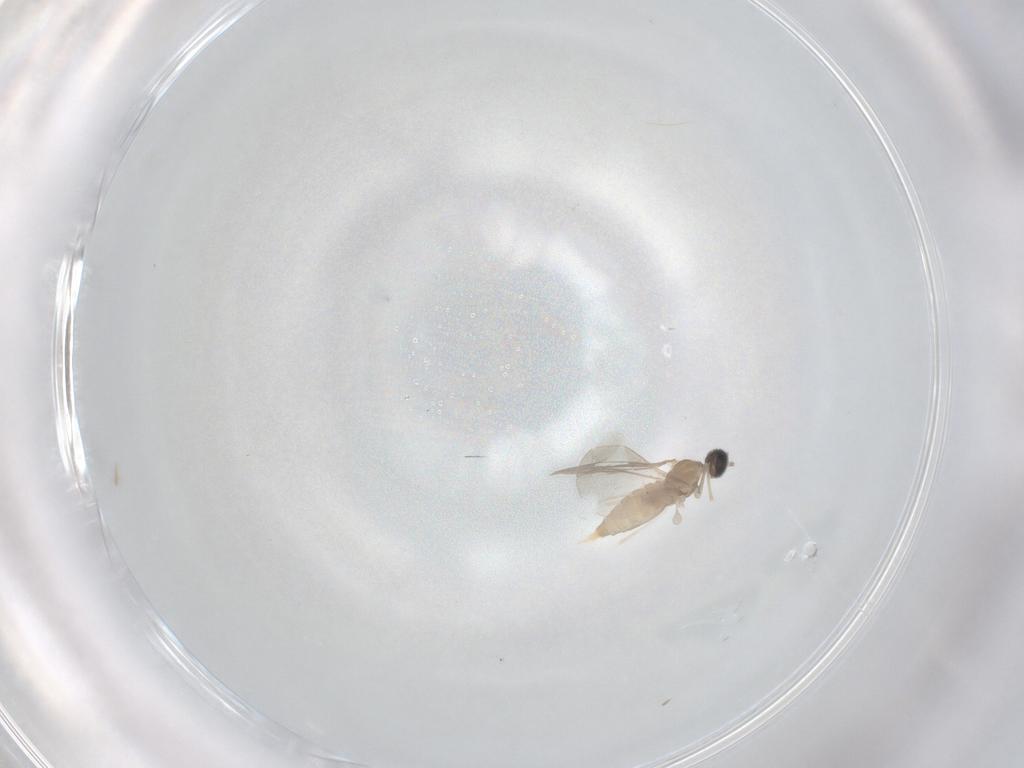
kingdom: Animalia
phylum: Arthropoda
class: Insecta
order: Diptera
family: Cecidomyiidae
